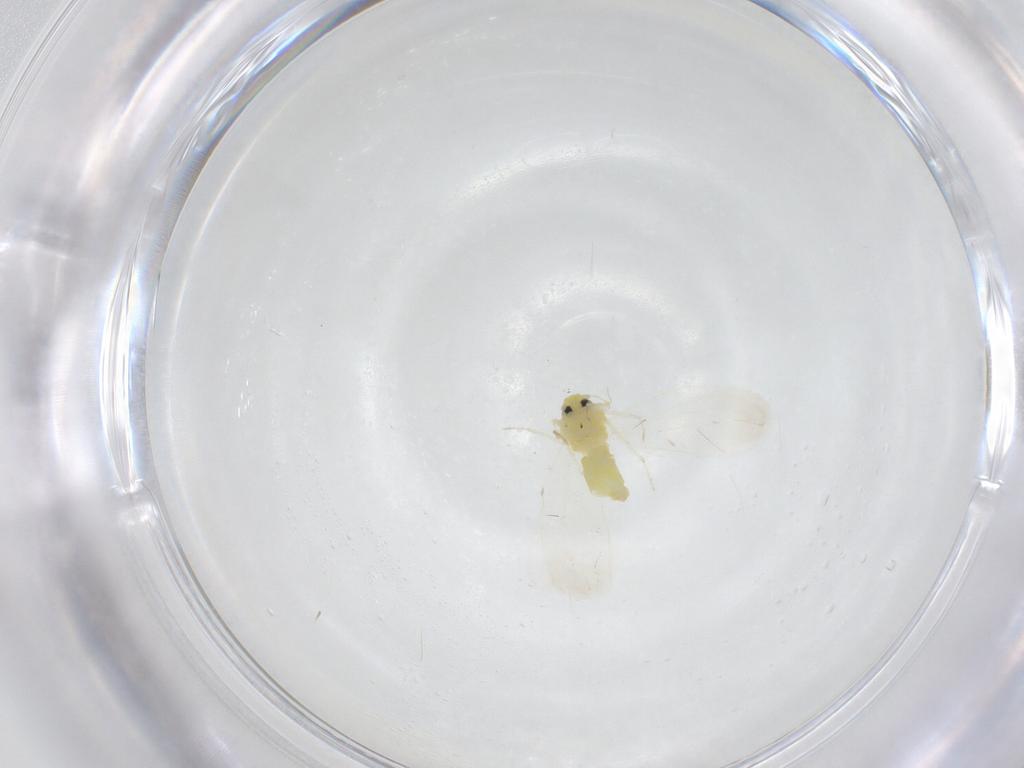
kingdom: Animalia
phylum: Arthropoda
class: Insecta
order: Hemiptera
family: Aleyrodidae
